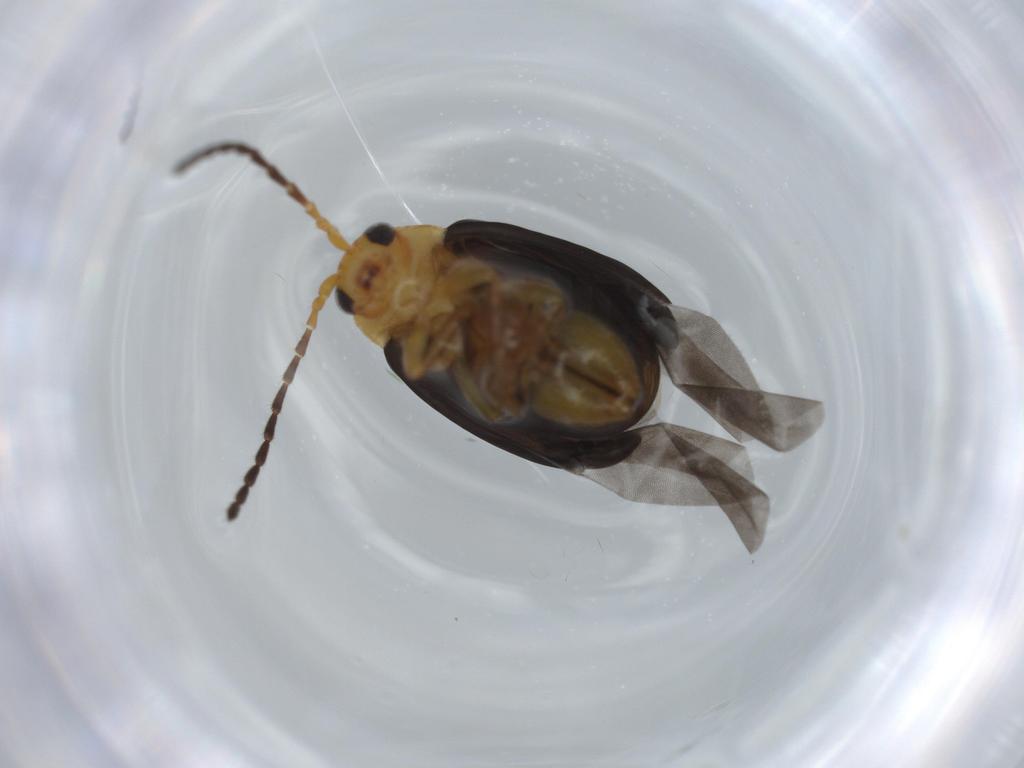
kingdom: Animalia
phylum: Arthropoda
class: Insecta
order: Coleoptera
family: Chrysomelidae
